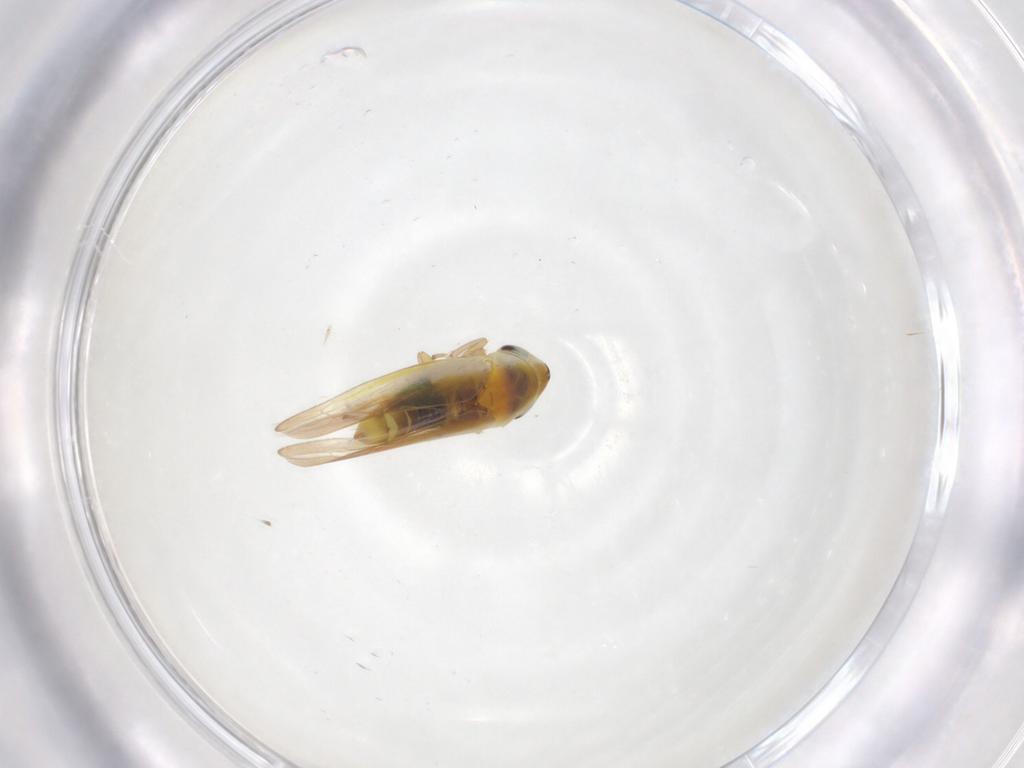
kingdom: Animalia
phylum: Arthropoda
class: Insecta
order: Hemiptera
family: Cicadellidae
